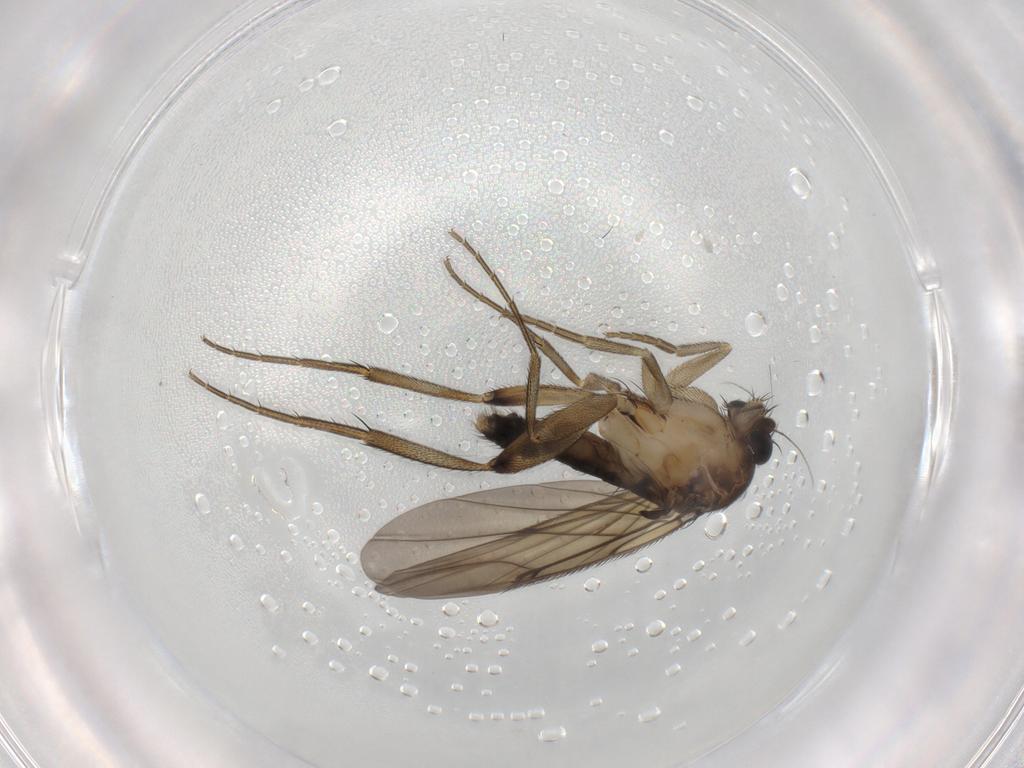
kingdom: Animalia
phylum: Arthropoda
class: Insecta
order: Diptera
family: Phoridae
